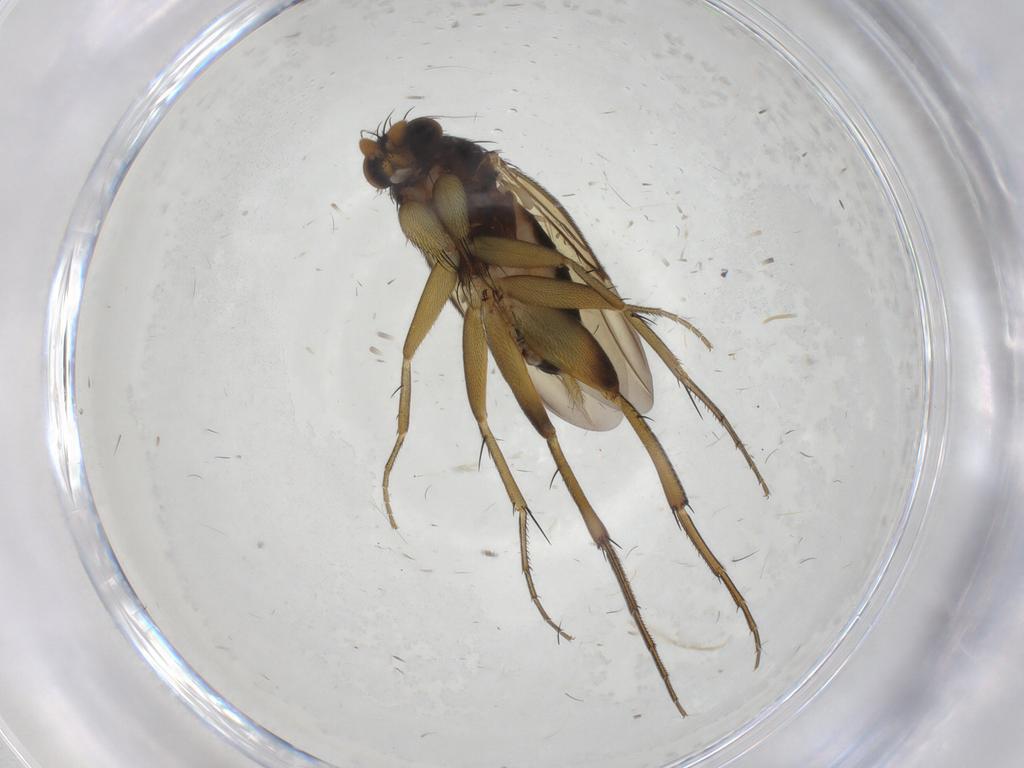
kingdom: Animalia
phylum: Arthropoda
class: Insecta
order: Diptera
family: Phoridae
